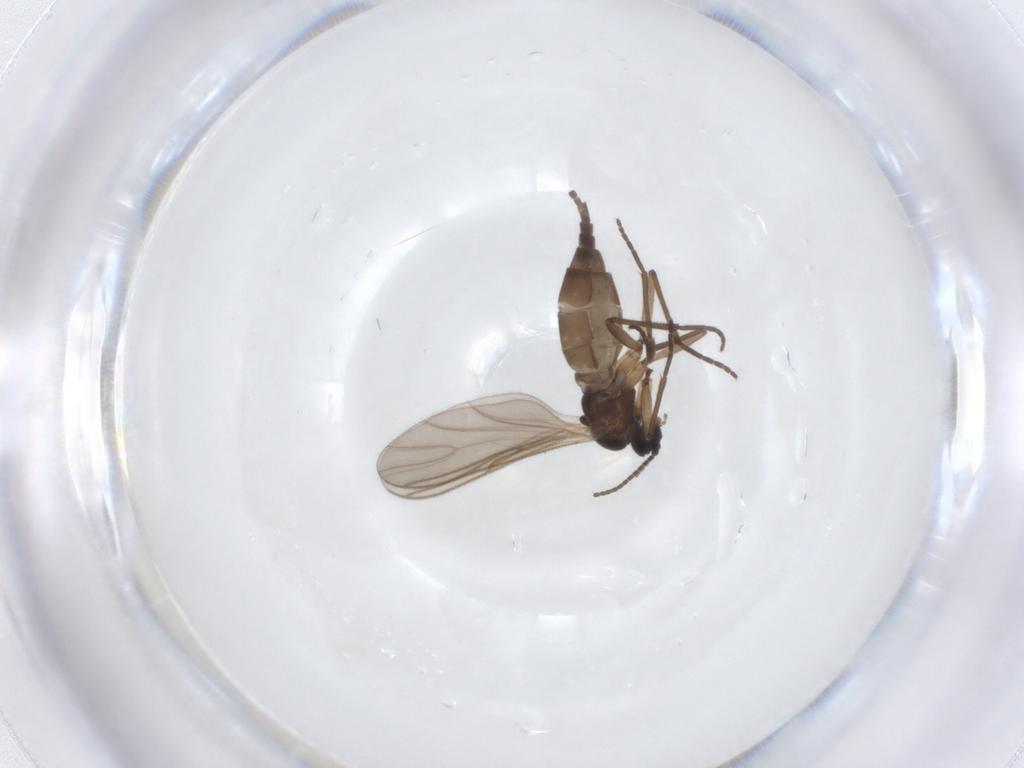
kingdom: Animalia
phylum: Arthropoda
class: Insecta
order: Diptera
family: Sciaridae
